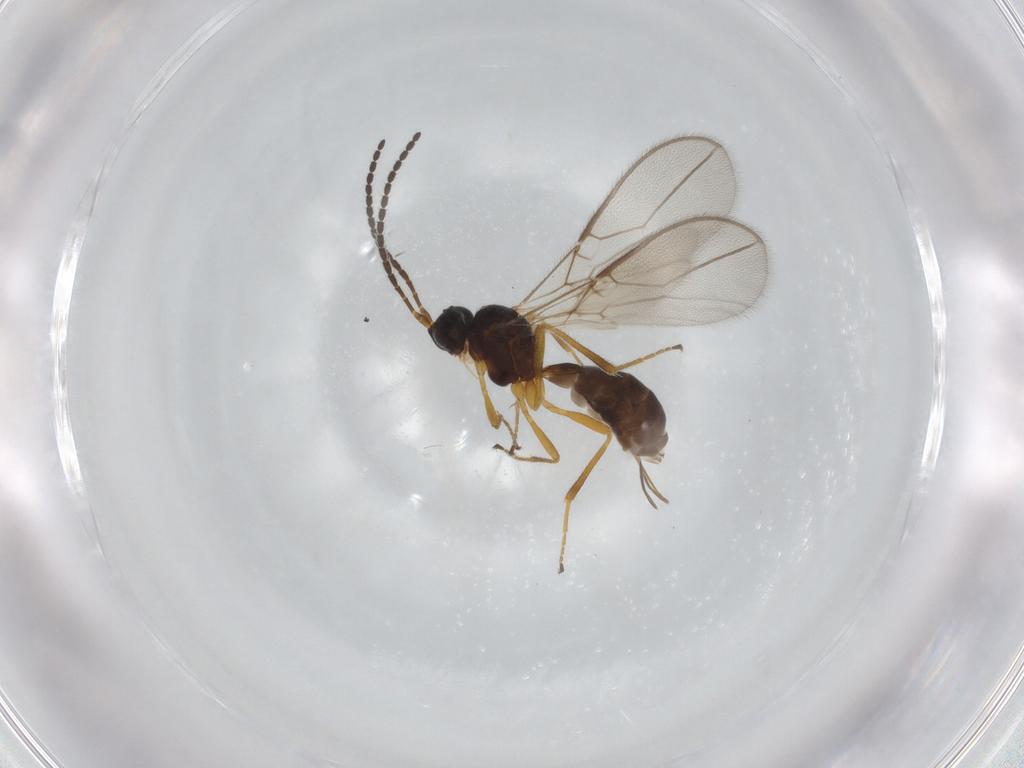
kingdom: Animalia
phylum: Arthropoda
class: Insecta
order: Hymenoptera
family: Braconidae
